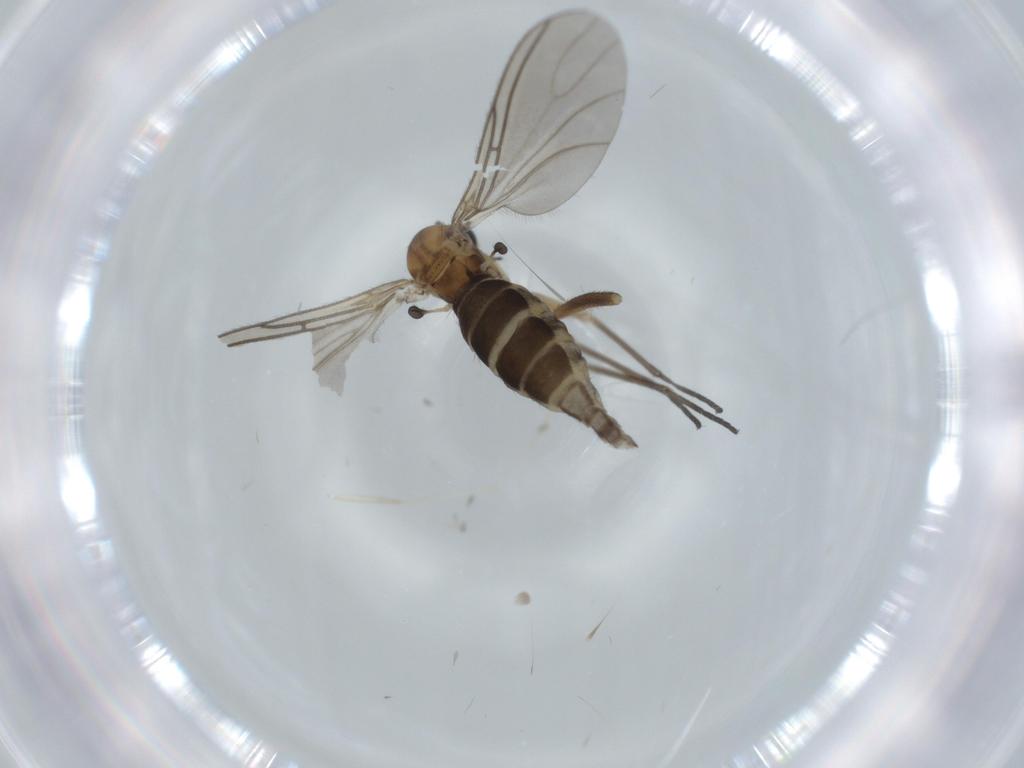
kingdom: Animalia
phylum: Arthropoda
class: Insecta
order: Diptera
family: Sciaridae
